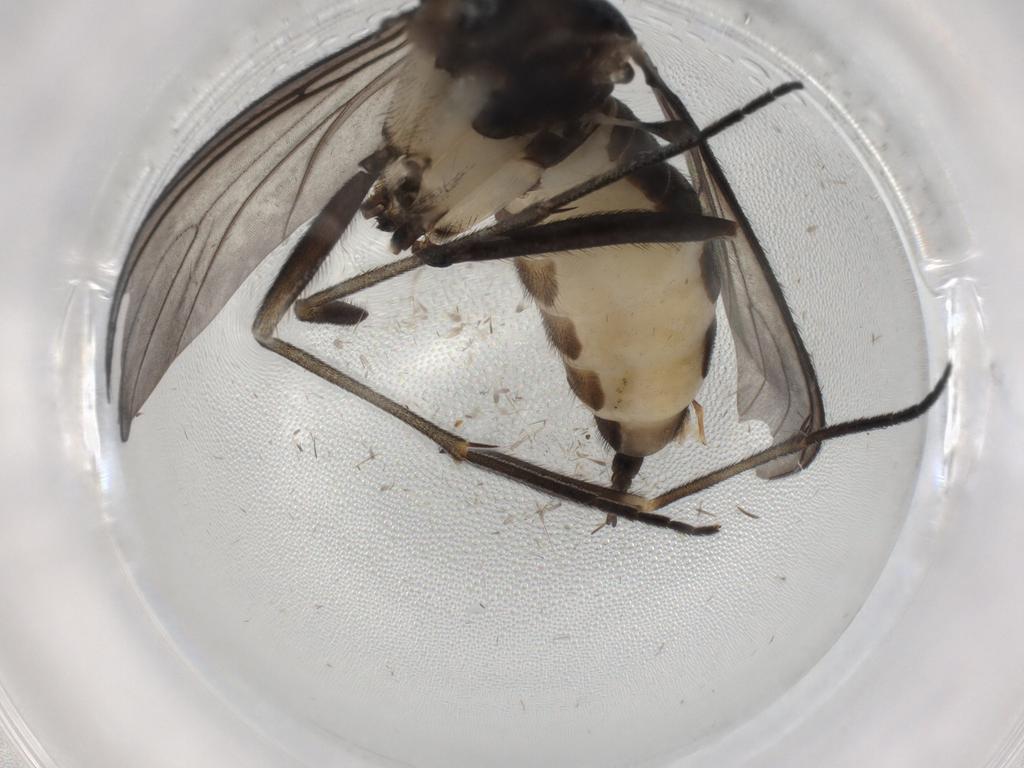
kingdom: Animalia
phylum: Arthropoda
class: Insecta
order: Diptera
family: Sciaridae
